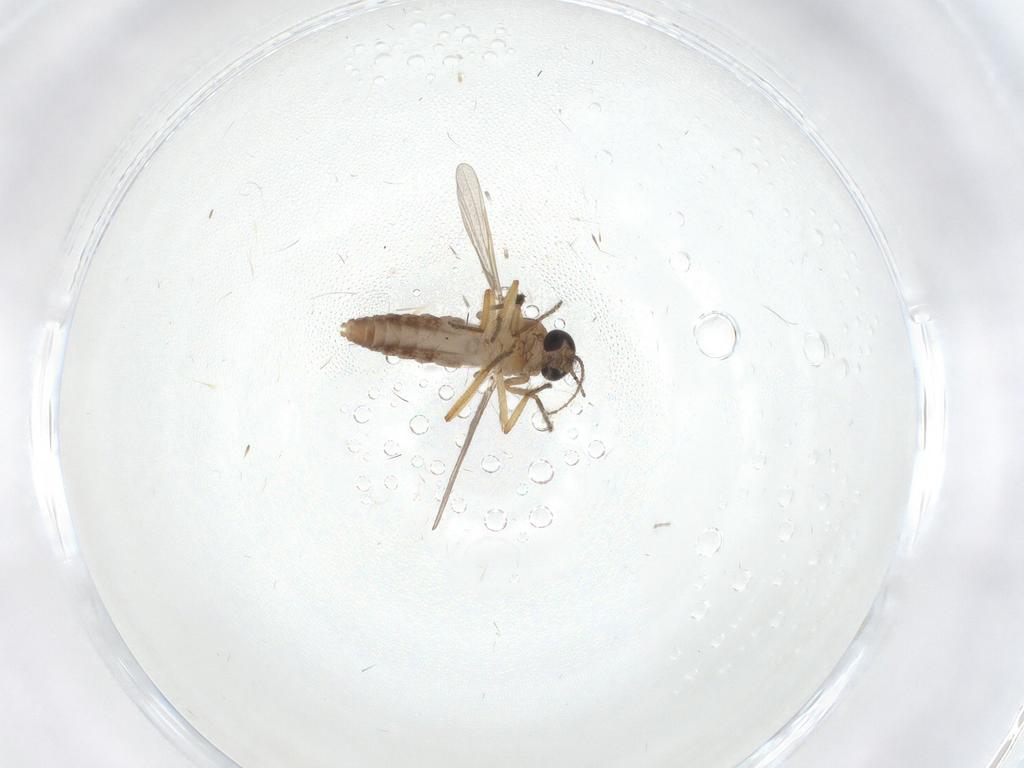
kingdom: Animalia
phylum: Arthropoda
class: Insecta
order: Diptera
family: Ceratopogonidae
